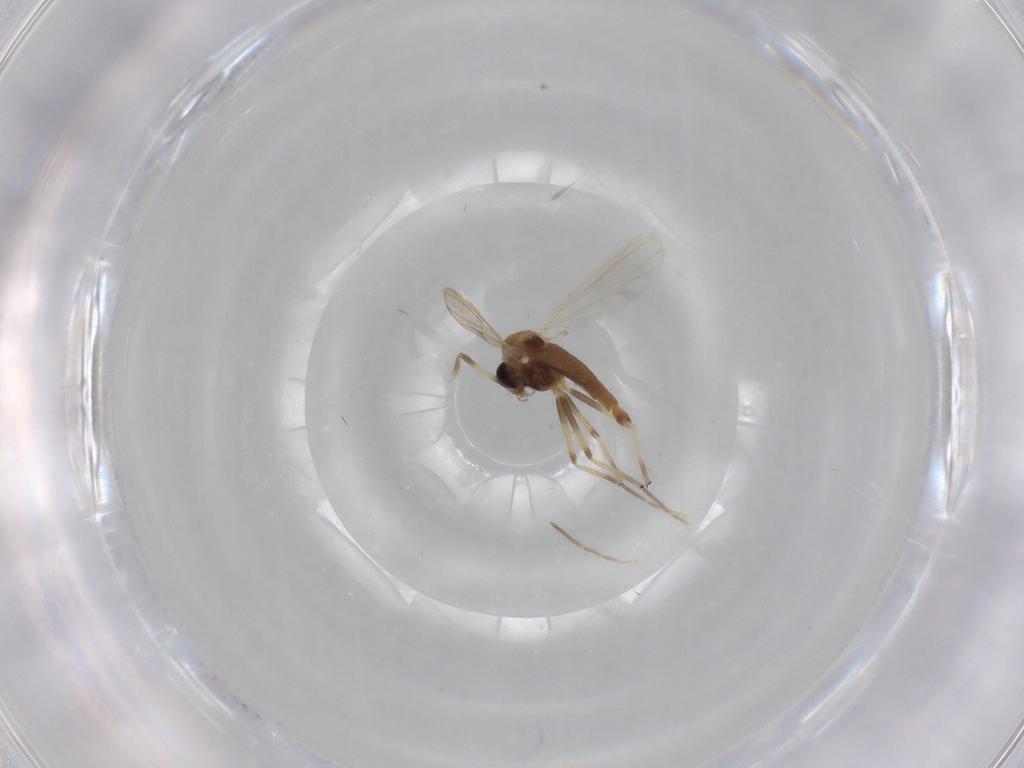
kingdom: Animalia
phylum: Arthropoda
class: Insecta
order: Diptera
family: Chironomidae
